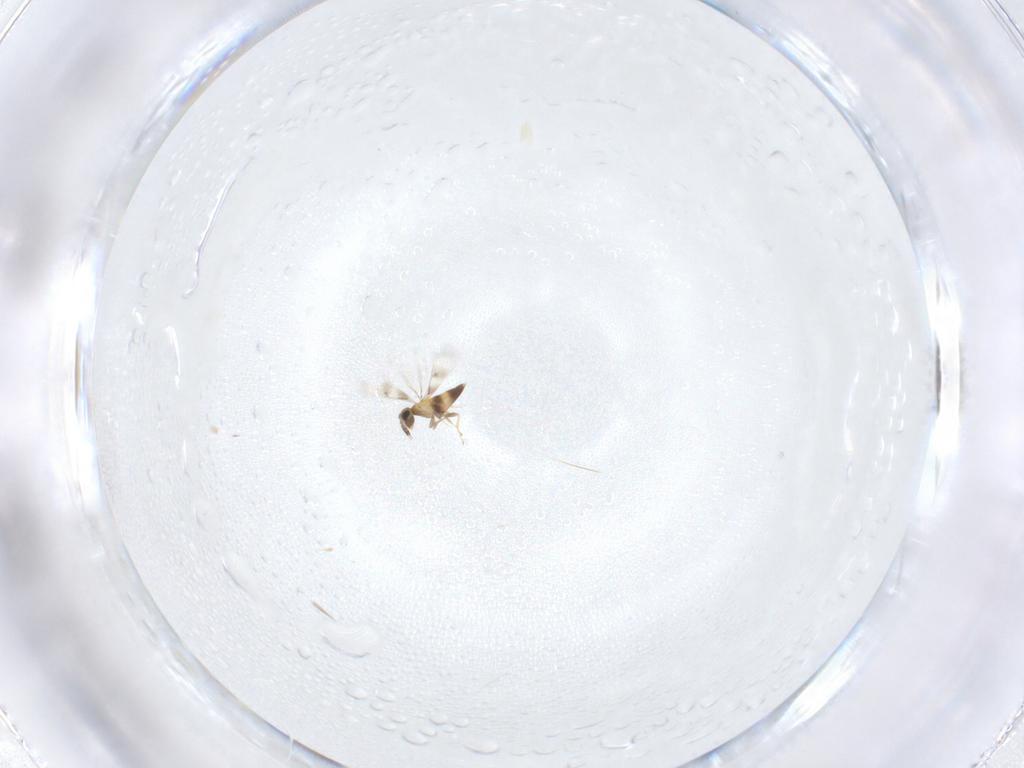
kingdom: Animalia
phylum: Arthropoda
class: Insecta
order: Hymenoptera
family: Trichogrammatidae
